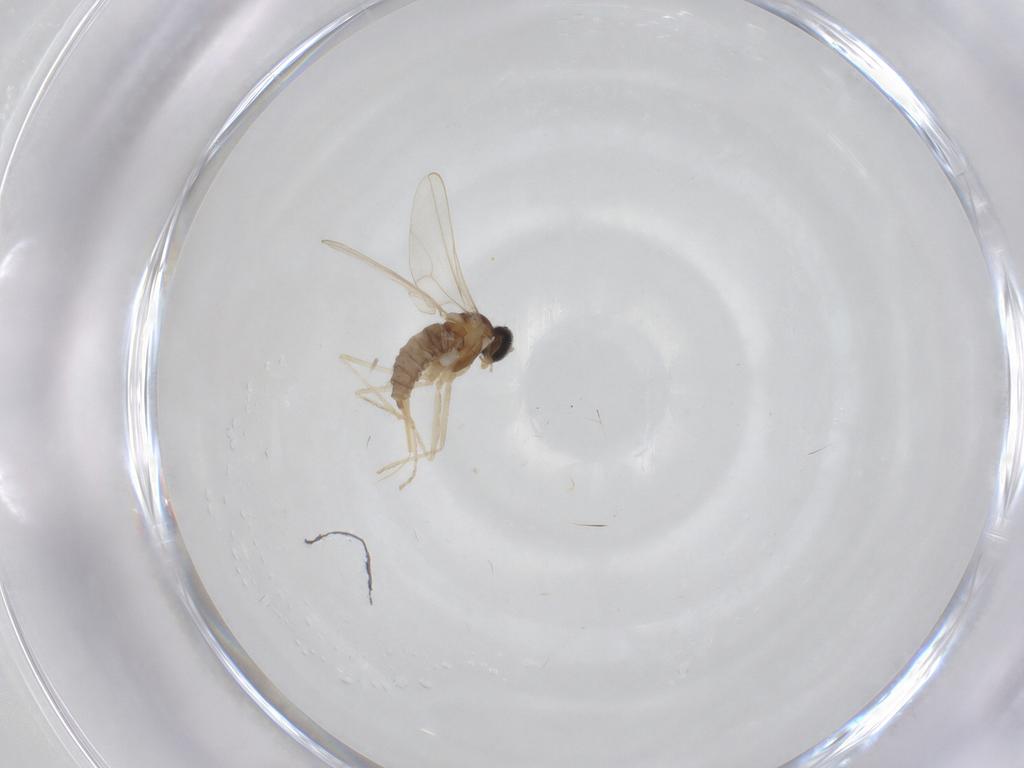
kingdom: Animalia
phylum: Arthropoda
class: Insecta
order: Diptera
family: Cecidomyiidae
